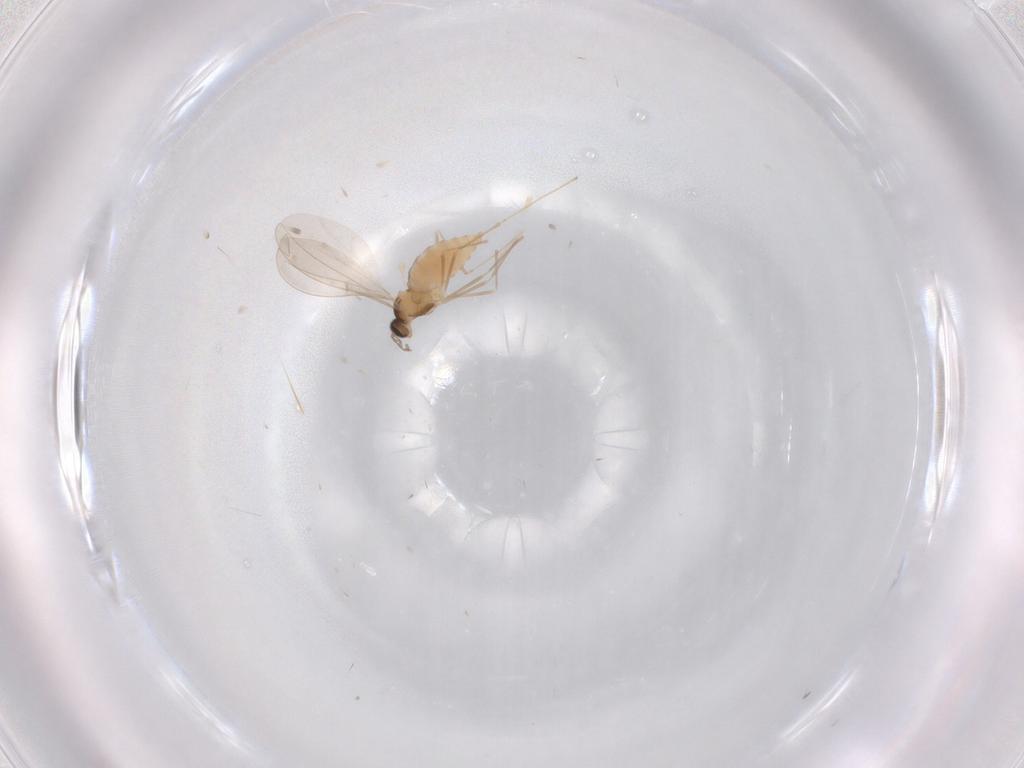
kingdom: Animalia
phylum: Arthropoda
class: Insecta
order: Diptera
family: Cecidomyiidae
